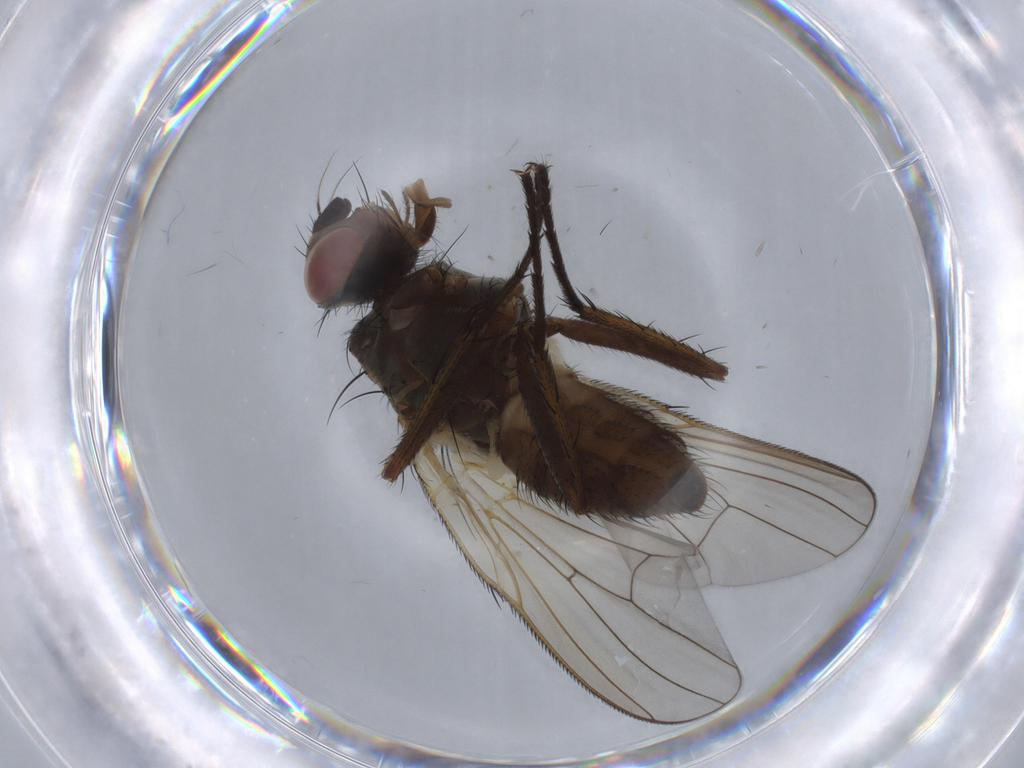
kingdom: Animalia
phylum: Arthropoda
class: Insecta
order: Diptera
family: Anthomyiidae
